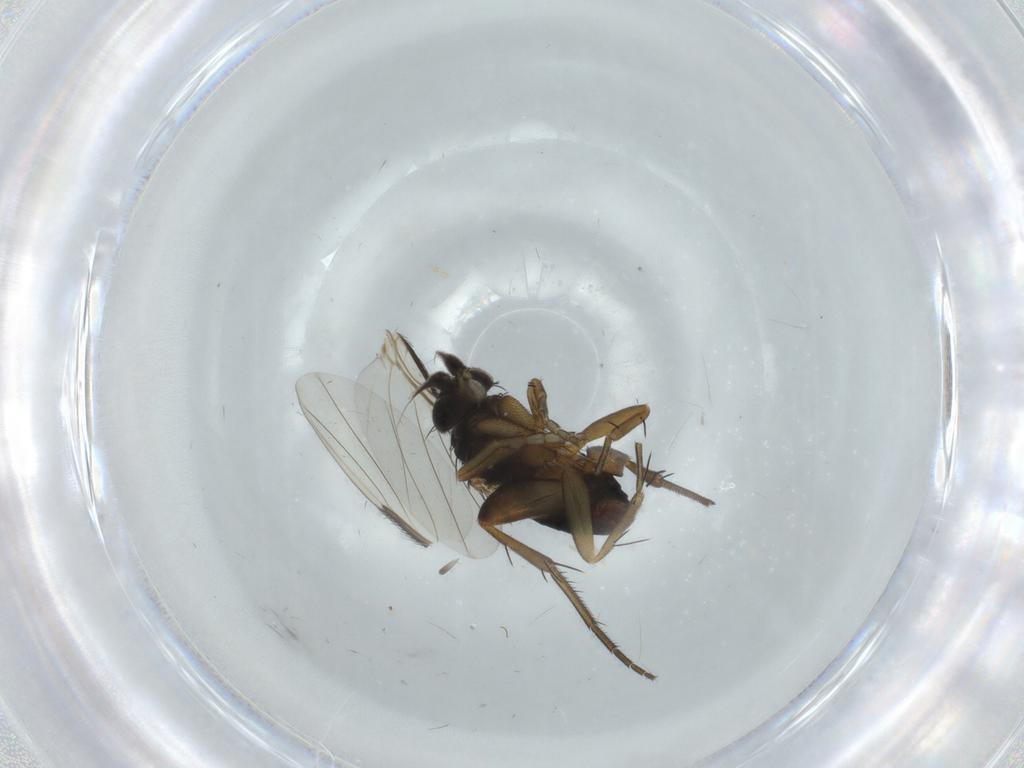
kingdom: Animalia
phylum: Arthropoda
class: Insecta
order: Diptera
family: Phoridae
